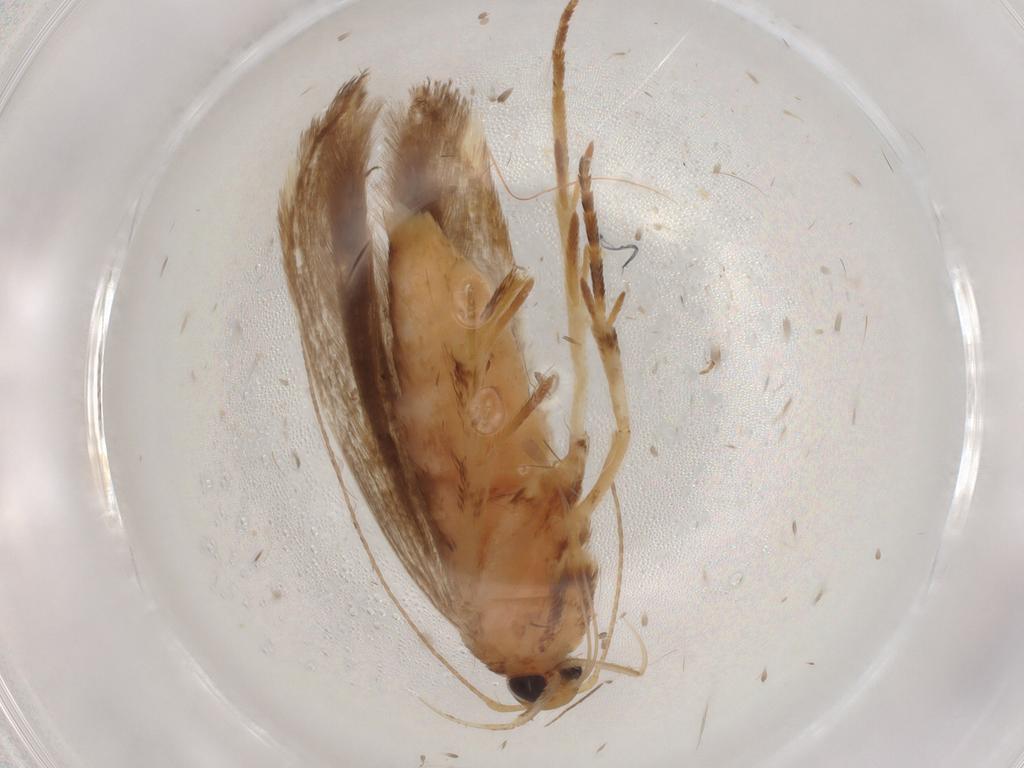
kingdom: Animalia
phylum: Arthropoda
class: Insecta
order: Lepidoptera
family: Gelechiidae
